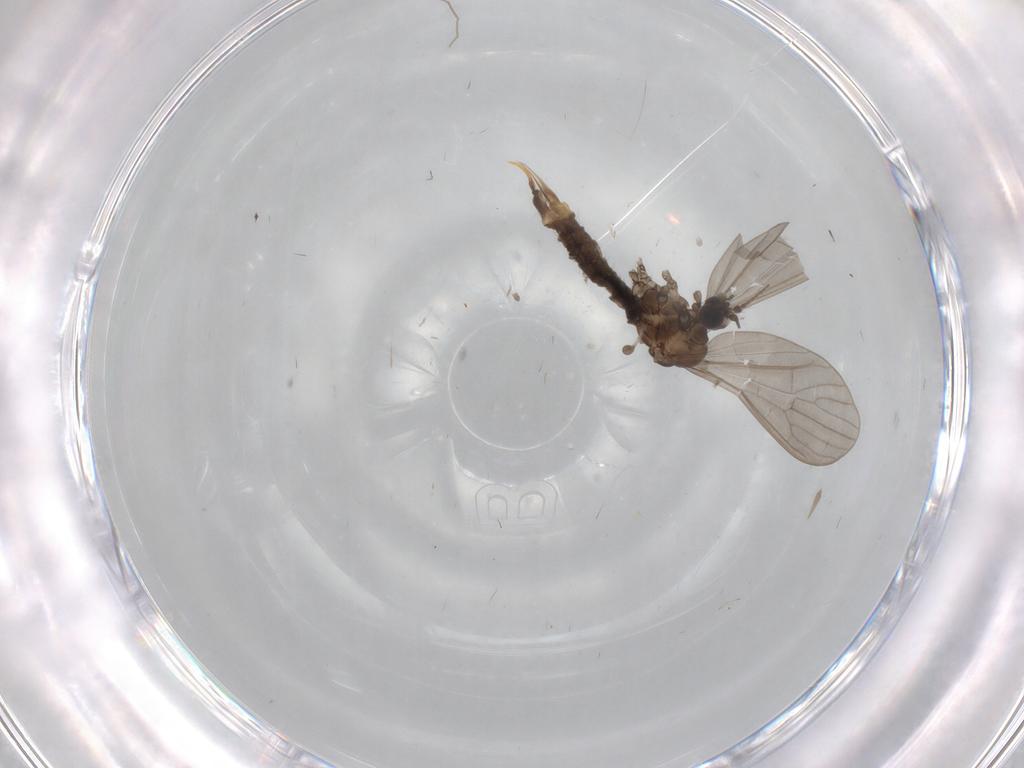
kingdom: Animalia
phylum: Arthropoda
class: Insecta
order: Diptera
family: Limoniidae
